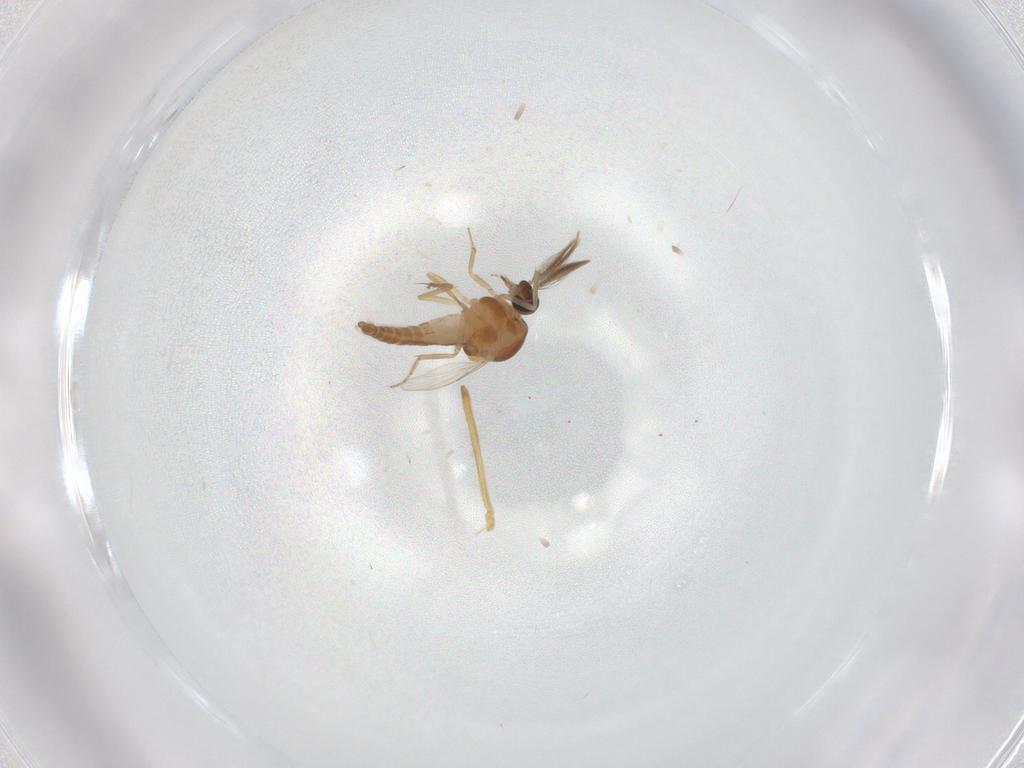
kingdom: Animalia
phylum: Arthropoda
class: Insecta
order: Diptera
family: Ceratopogonidae
